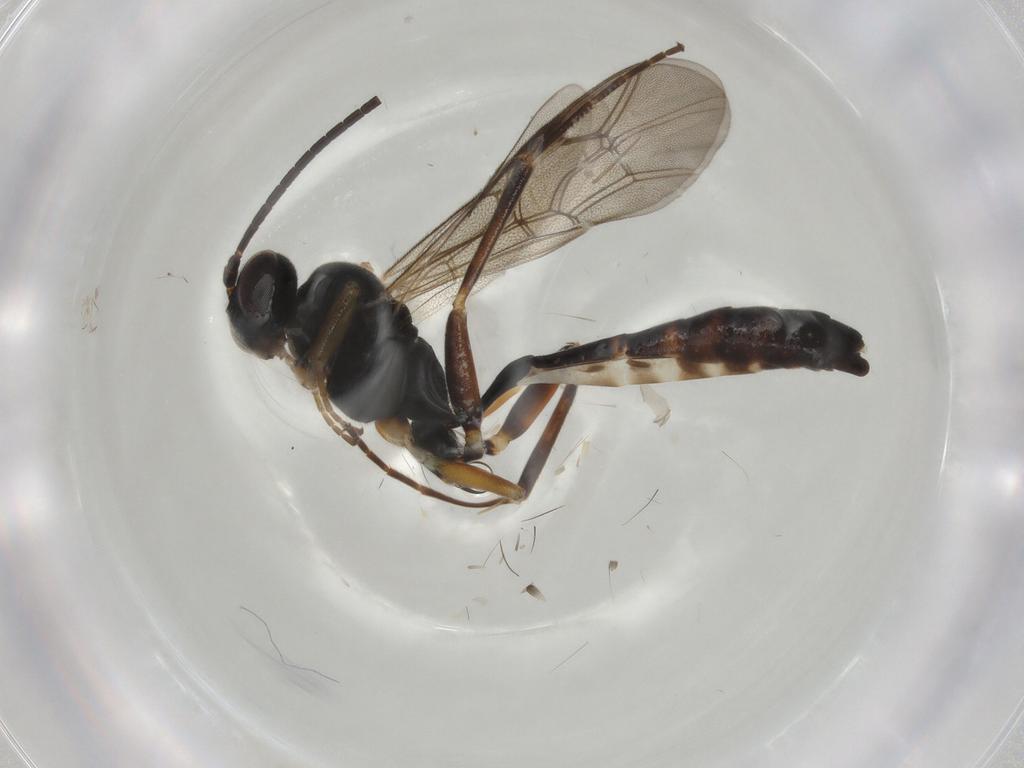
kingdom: Animalia
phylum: Arthropoda
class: Insecta
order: Hymenoptera
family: Ichneumonidae
